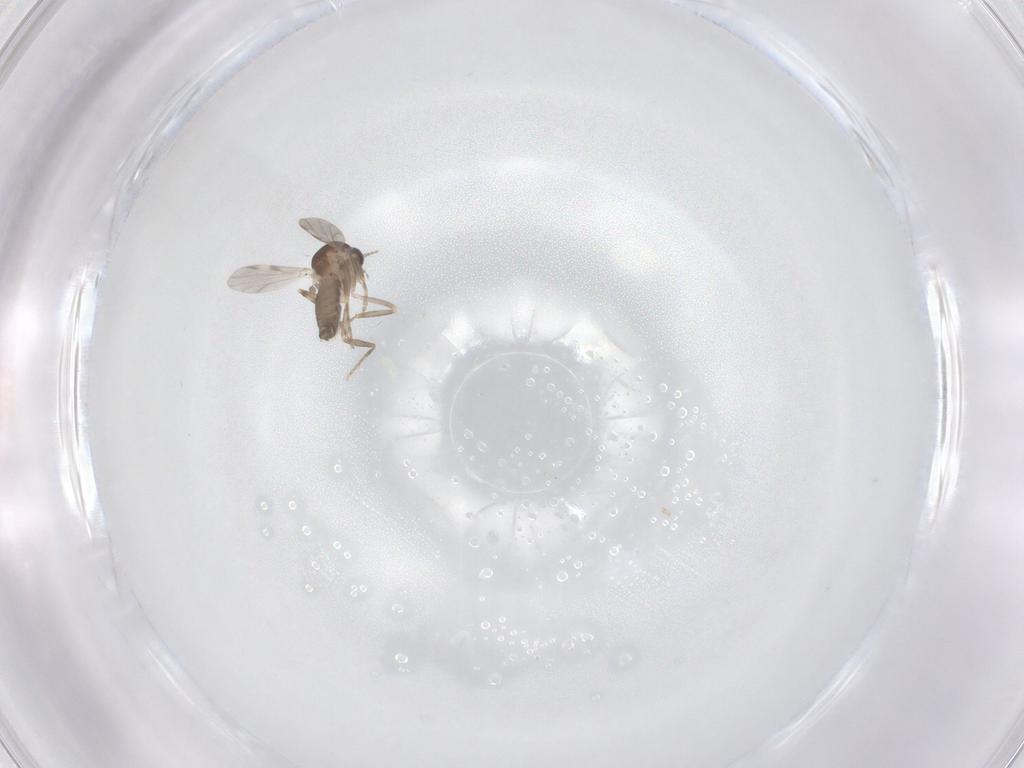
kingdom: Animalia
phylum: Arthropoda
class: Insecta
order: Diptera
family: Ceratopogonidae
